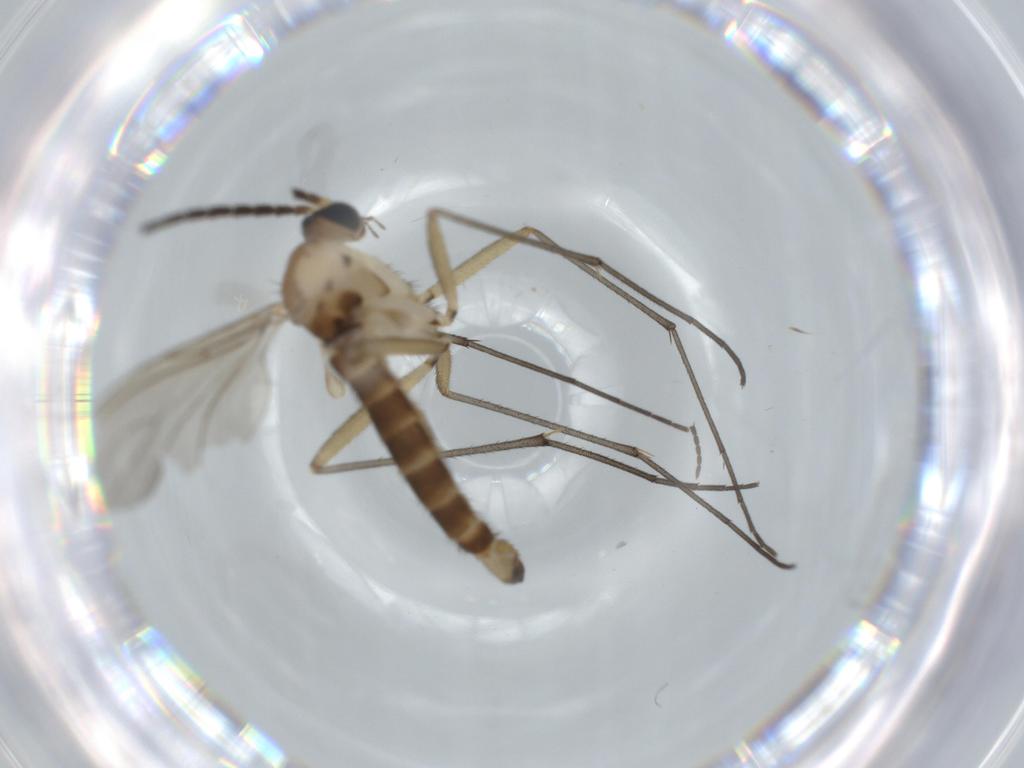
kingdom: Animalia
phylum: Arthropoda
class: Insecta
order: Diptera
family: Sciaridae
